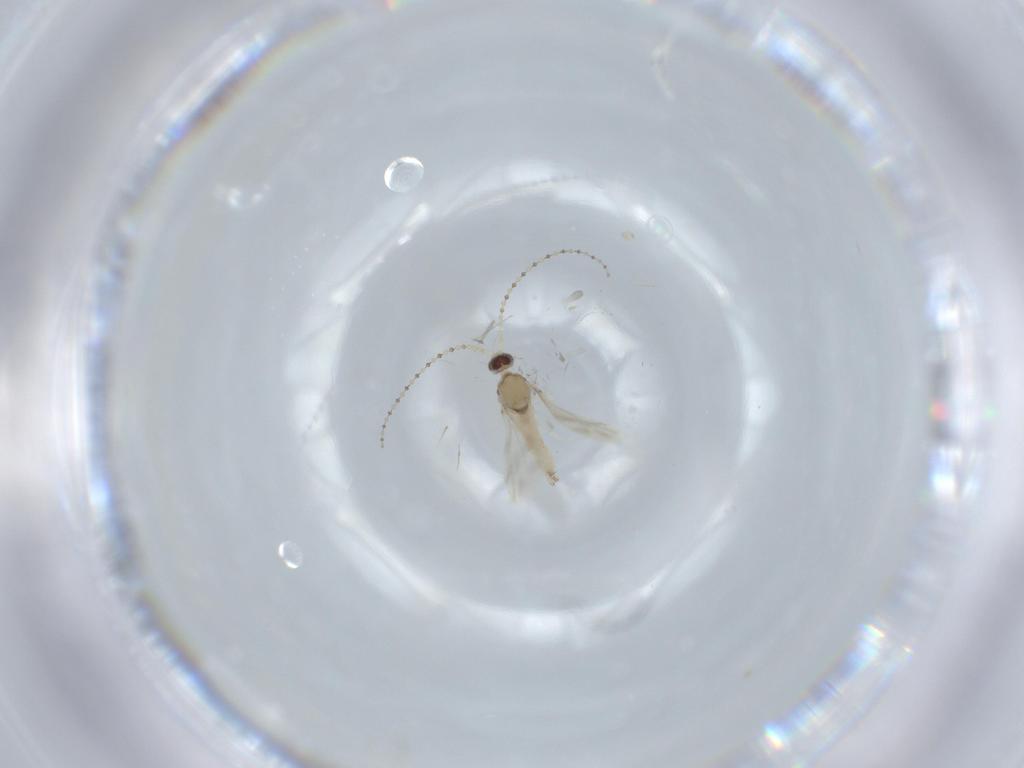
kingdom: Animalia
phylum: Arthropoda
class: Insecta
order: Diptera
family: Cecidomyiidae
